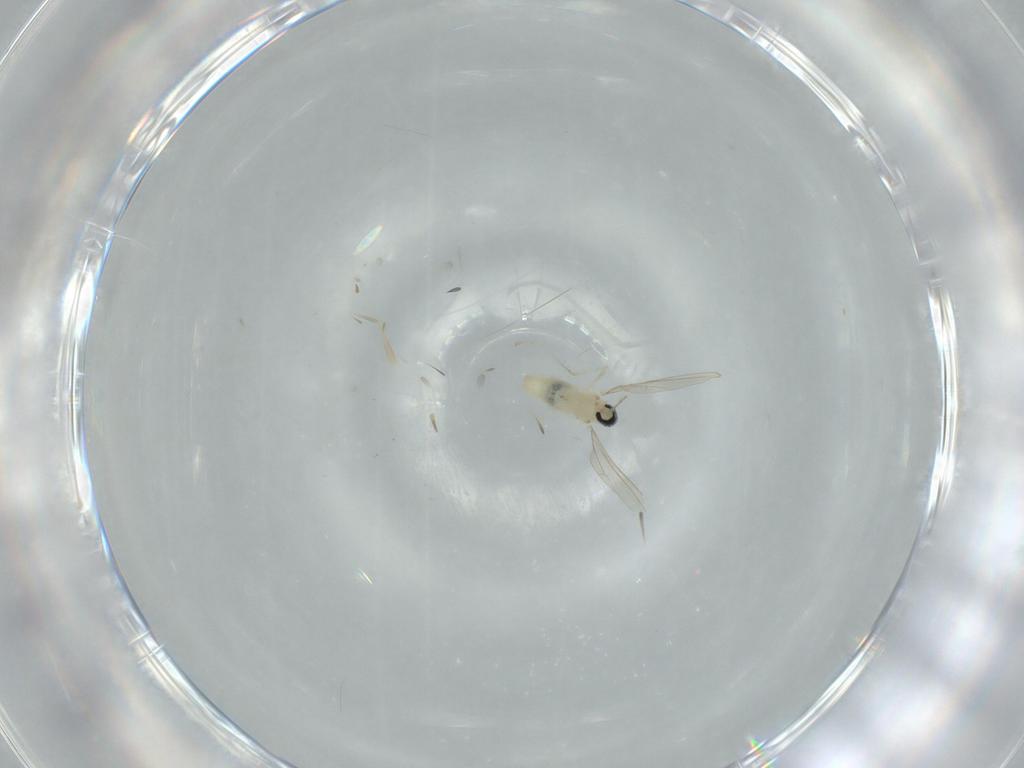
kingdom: Animalia
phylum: Arthropoda
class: Insecta
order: Diptera
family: Cecidomyiidae
